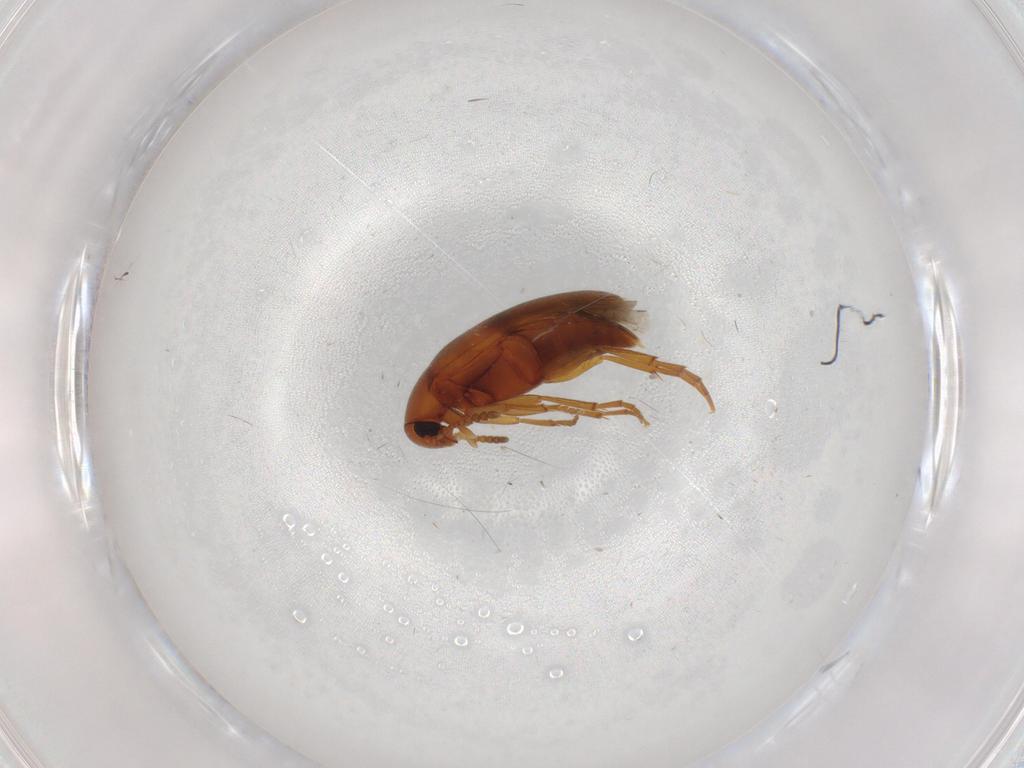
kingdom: Animalia
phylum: Arthropoda
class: Insecta
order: Coleoptera
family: Scraptiidae
